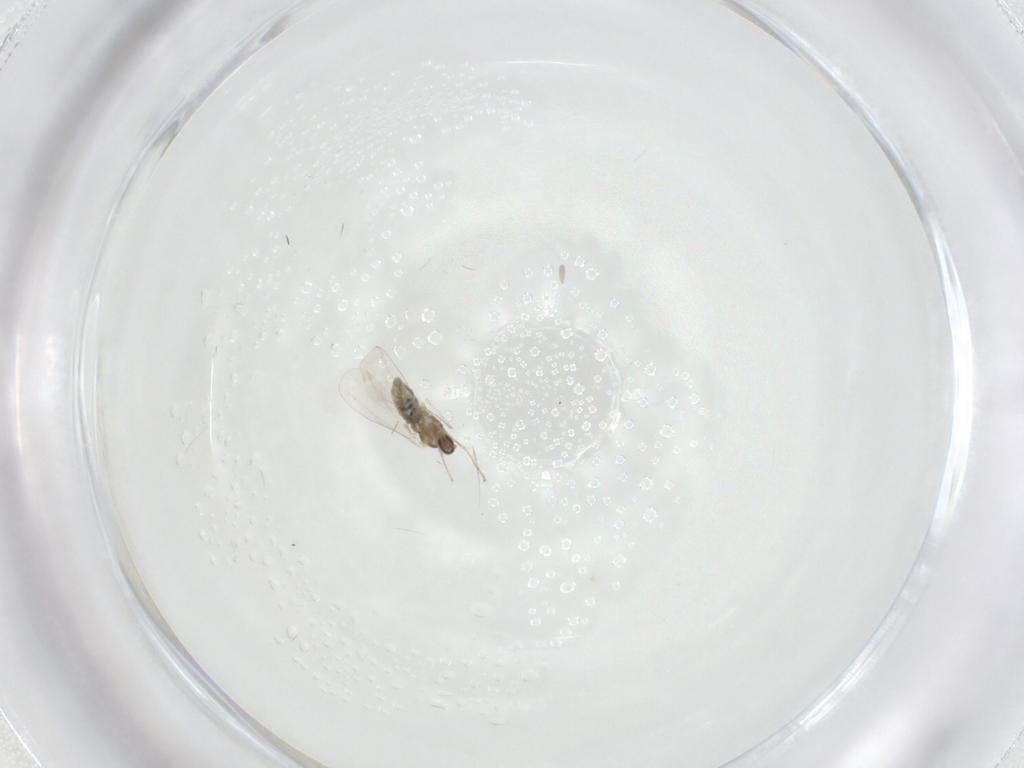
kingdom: Animalia
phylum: Arthropoda
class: Insecta
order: Diptera
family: Cecidomyiidae
